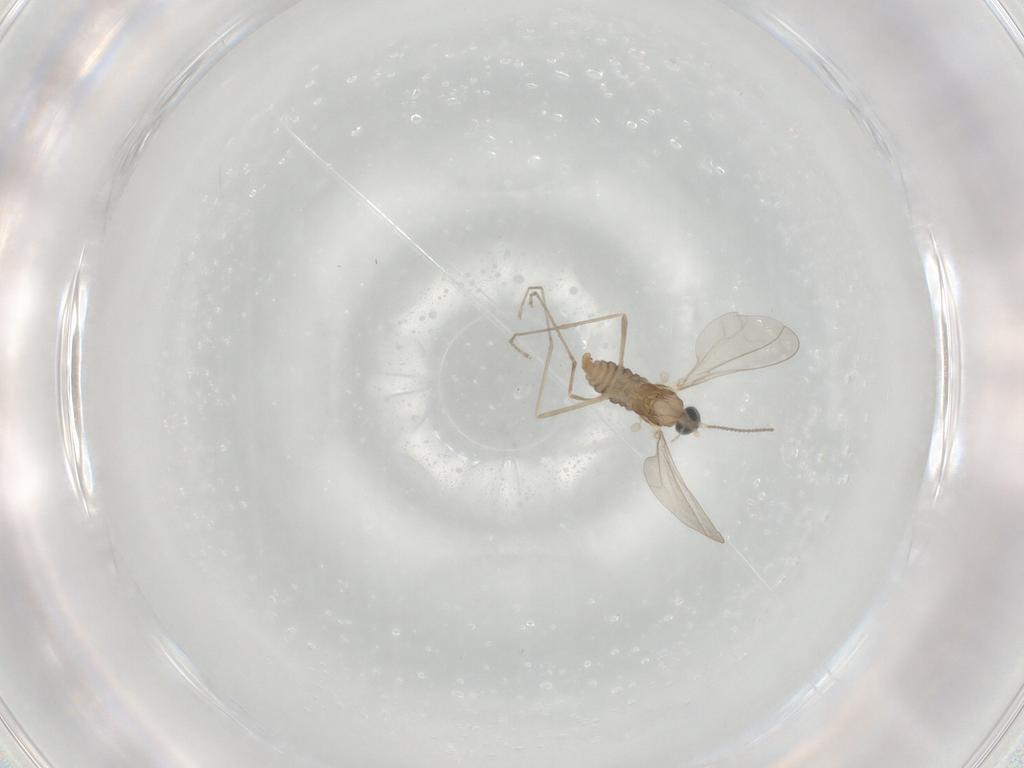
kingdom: Animalia
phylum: Arthropoda
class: Insecta
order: Diptera
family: Cecidomyiidae
